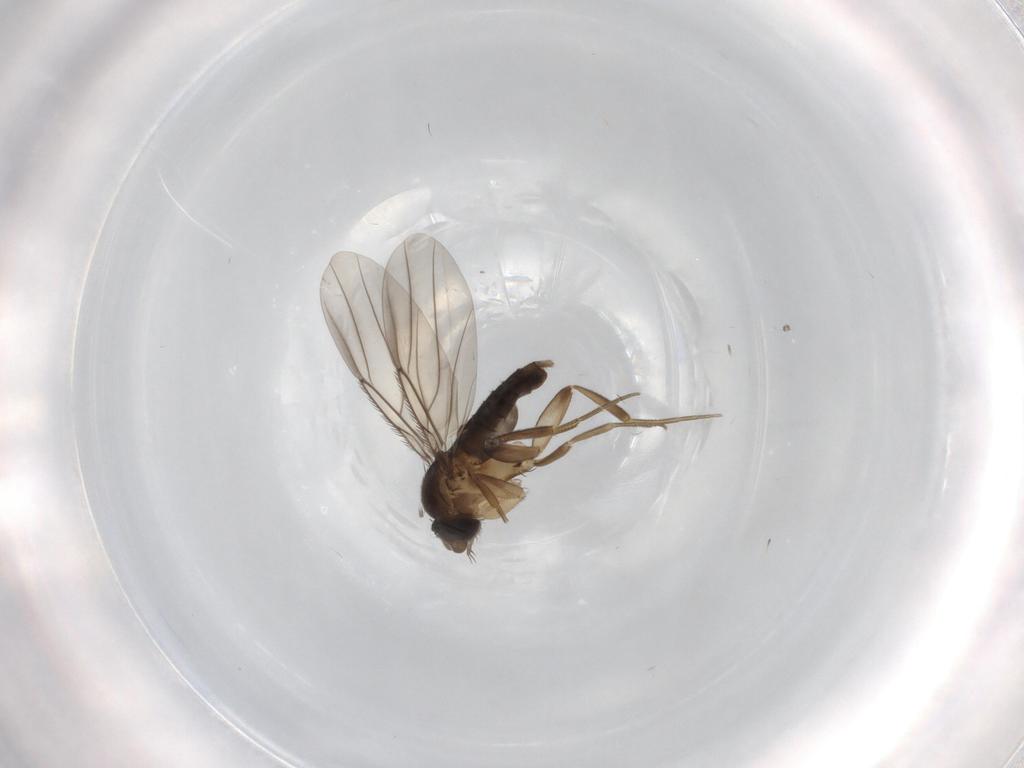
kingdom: Animalia
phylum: Arthropoda
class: Insecta
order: Diptera
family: Phoridae
